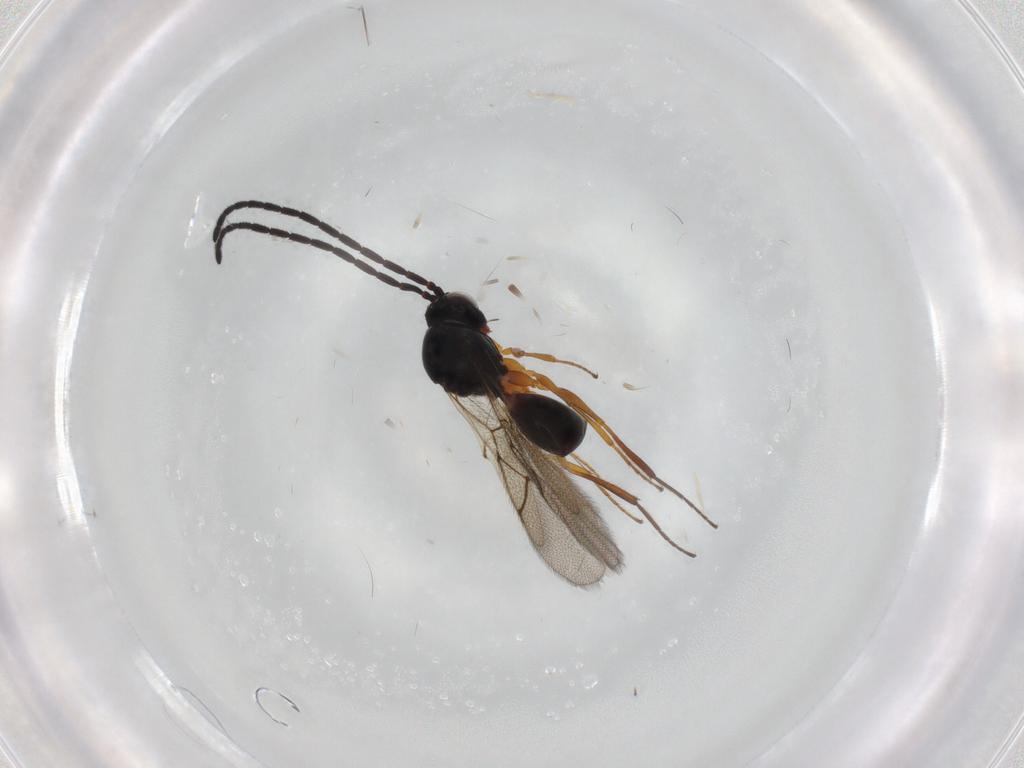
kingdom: Animalia
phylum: Arthropoda
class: Insecta
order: Hymenoptera
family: Figitidae
